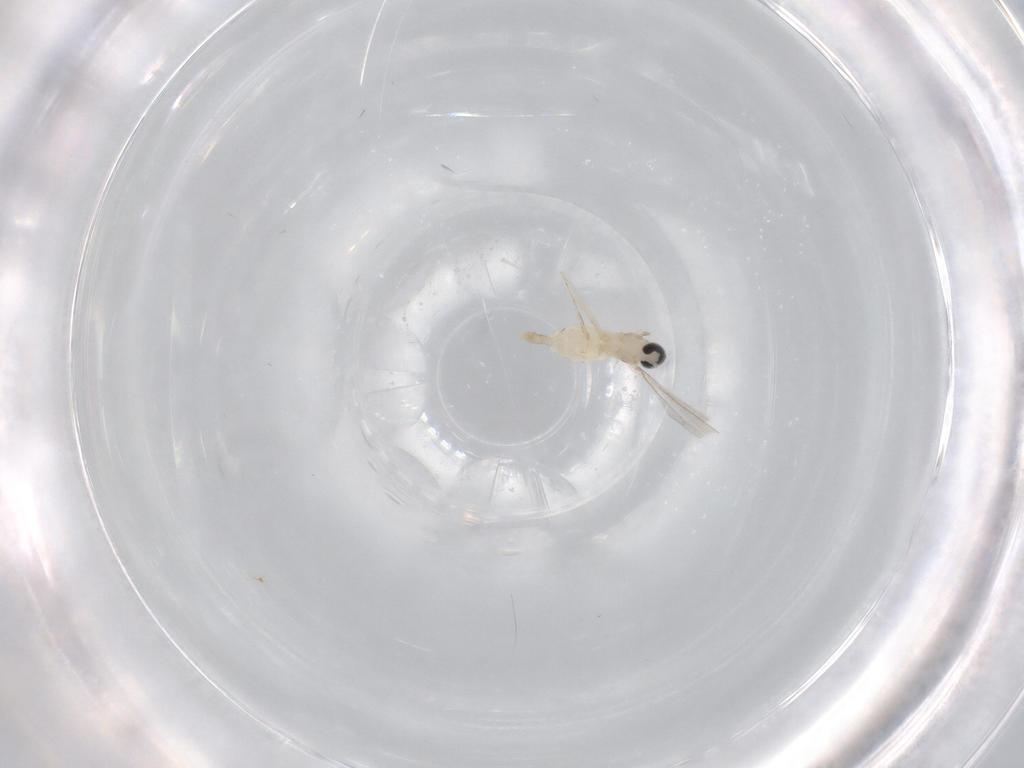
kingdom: Animalia
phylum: Arthropoda
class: Insecta
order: Diptera
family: Cecidomyiidae
